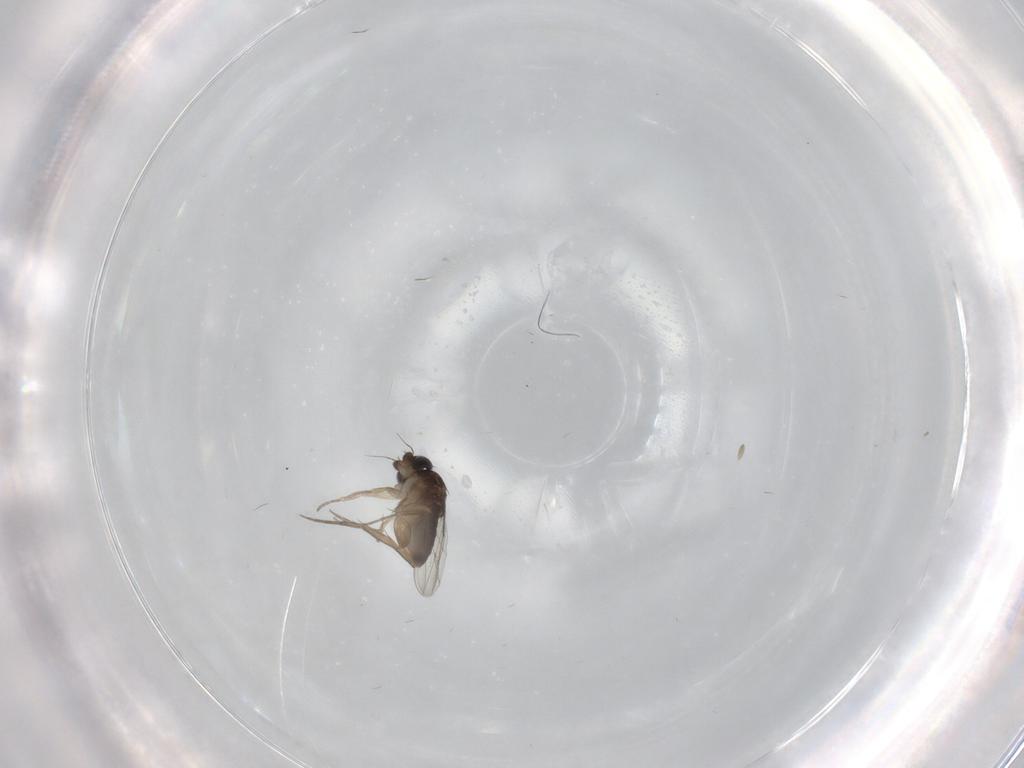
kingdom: Animalia
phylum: Arthropoda
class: Insecta
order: Diptera
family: Phoridae
